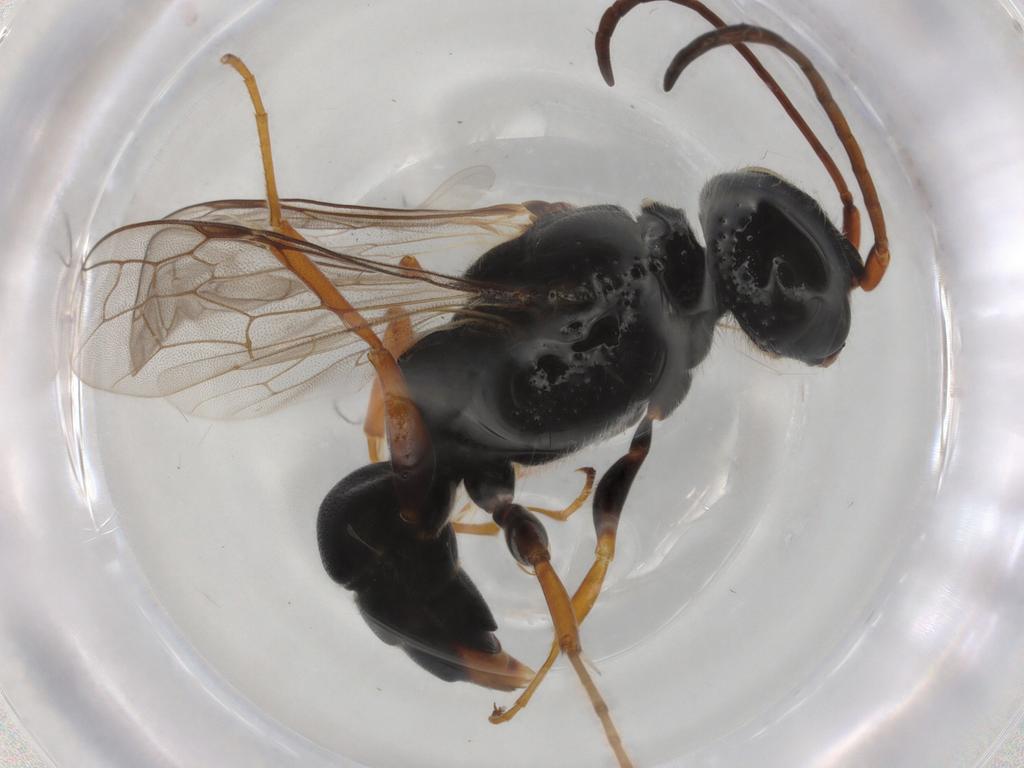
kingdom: Animalia
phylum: Arthropoda
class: Insecta
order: Hymenoptera
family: Ampulicidae
